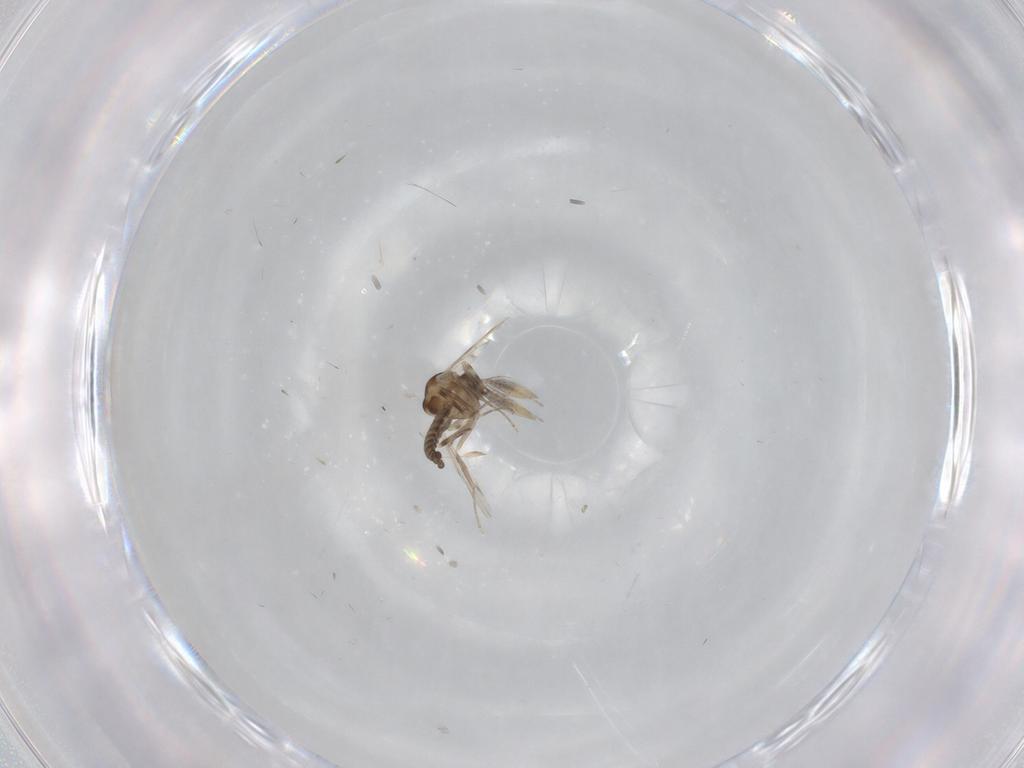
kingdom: Animalia
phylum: Arthropoda
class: Insecta
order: Diptera
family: Ceratopogonidae
